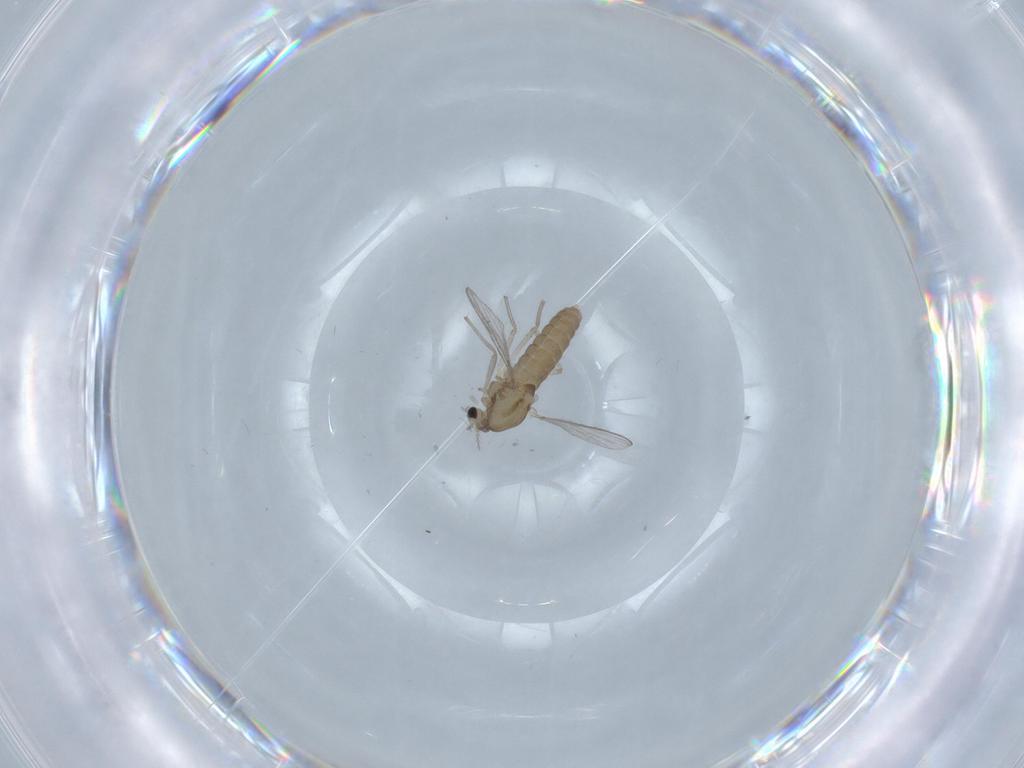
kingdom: Animalia
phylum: Arthropoda
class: Insecta
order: Diptera
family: Chironomidae
